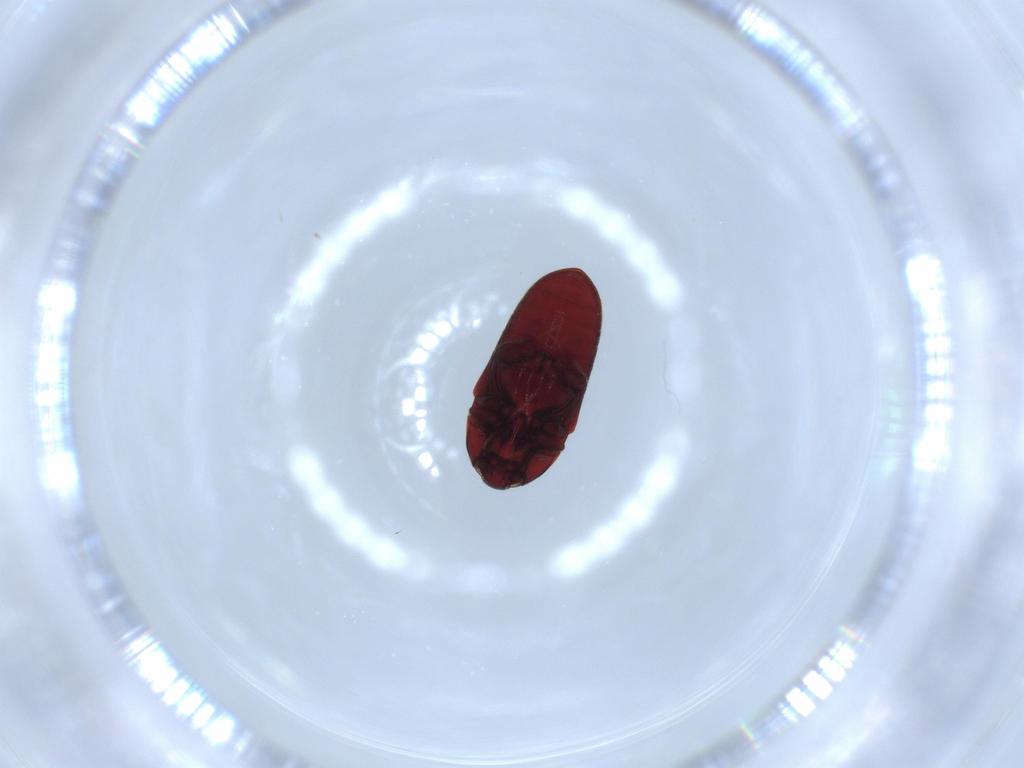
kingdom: Animalia
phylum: Arthropoda
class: Insecta
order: Coleoptera
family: Throscidae
